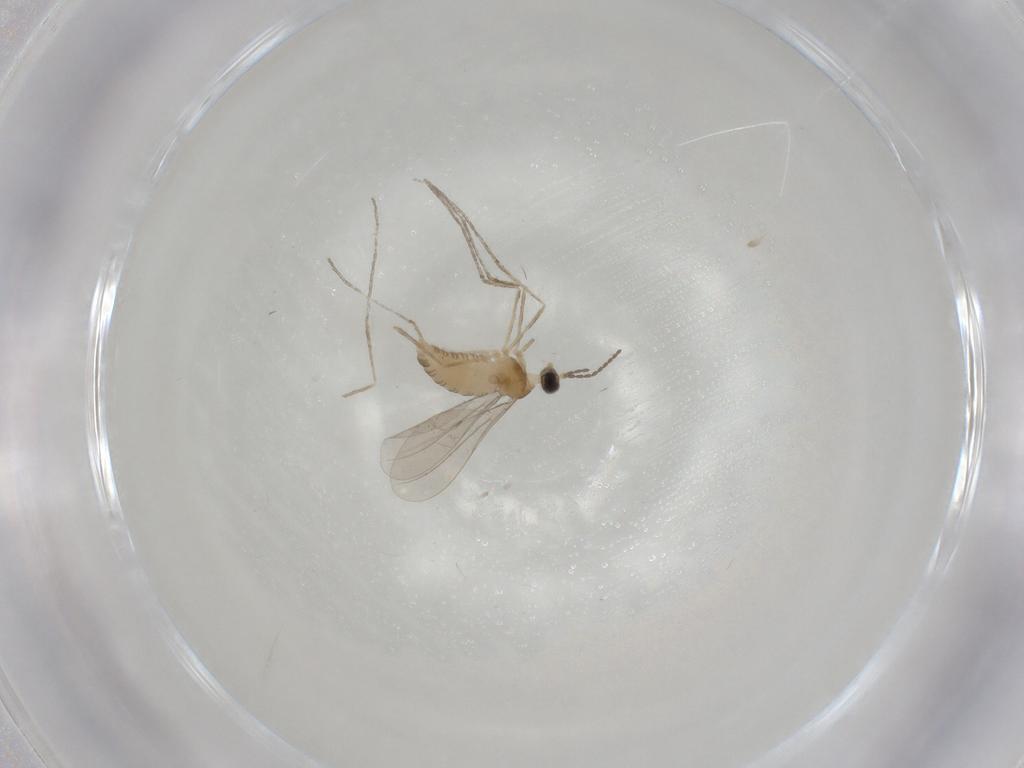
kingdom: Animalia
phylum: Arthropoda
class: Insecta
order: Diptera
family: Cecidomyiidae
